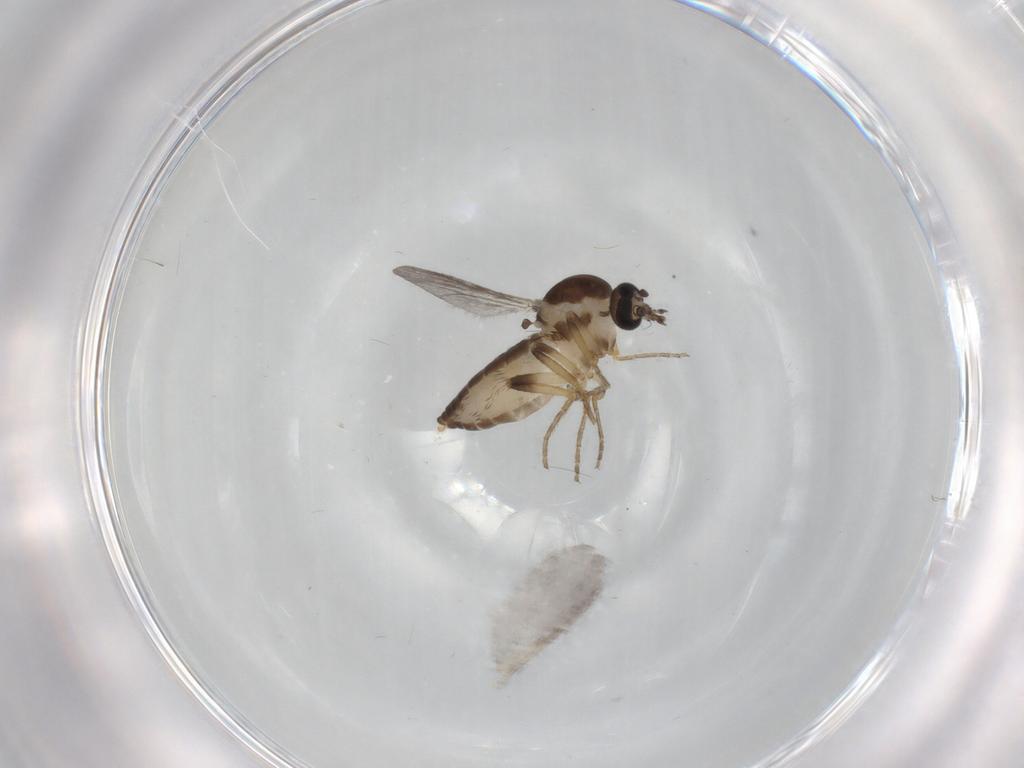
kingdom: Animalia
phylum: Arthropoda
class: Insecta
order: Diptera
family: Ceratopogonidae
